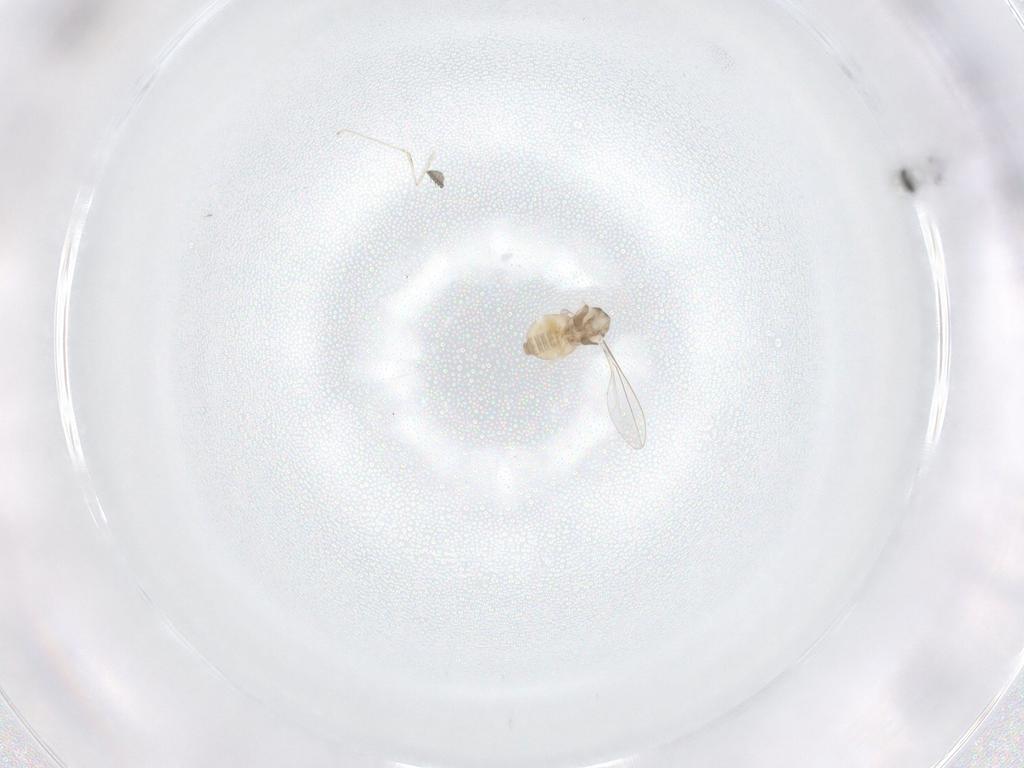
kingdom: Animalia
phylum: Arthropoda
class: Insecta
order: Diptera
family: Cecidomyiidae
